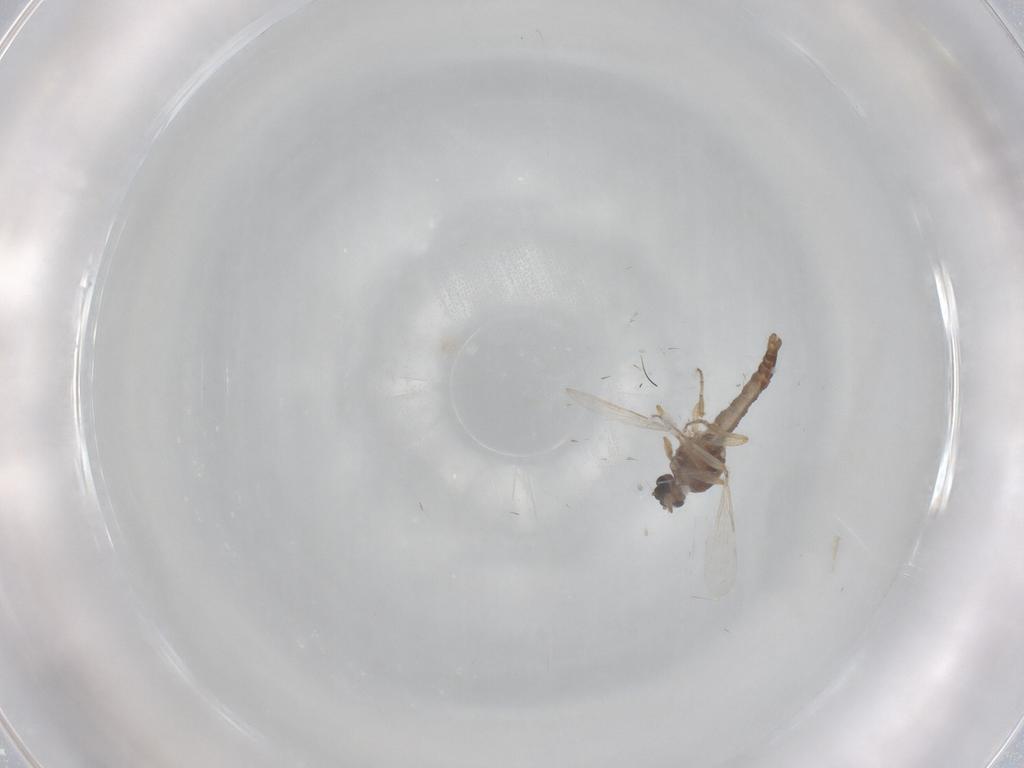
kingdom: Animalia
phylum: Arthropoda
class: Insecta
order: Diptera
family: Ceratopogonidae
